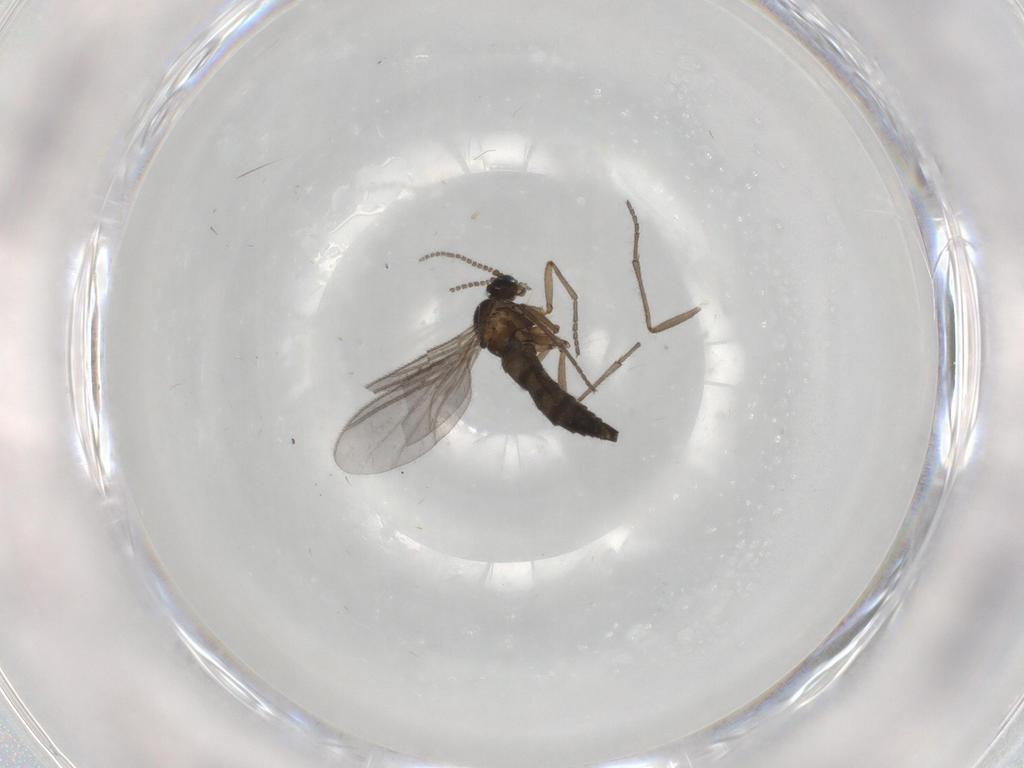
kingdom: Animalia
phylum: Arthropoda
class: Insecta
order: Diptera
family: Sciaridae
